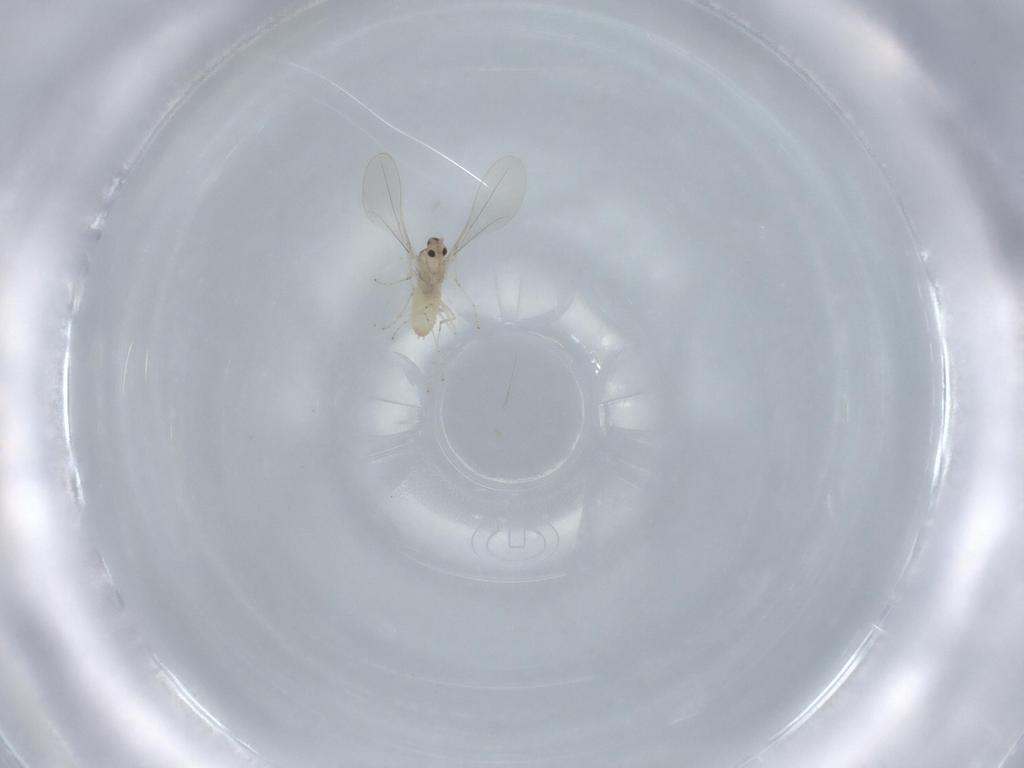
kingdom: Animalia
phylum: Arthropoda
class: Insecta
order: Diptera
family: Cecidomyiidae
